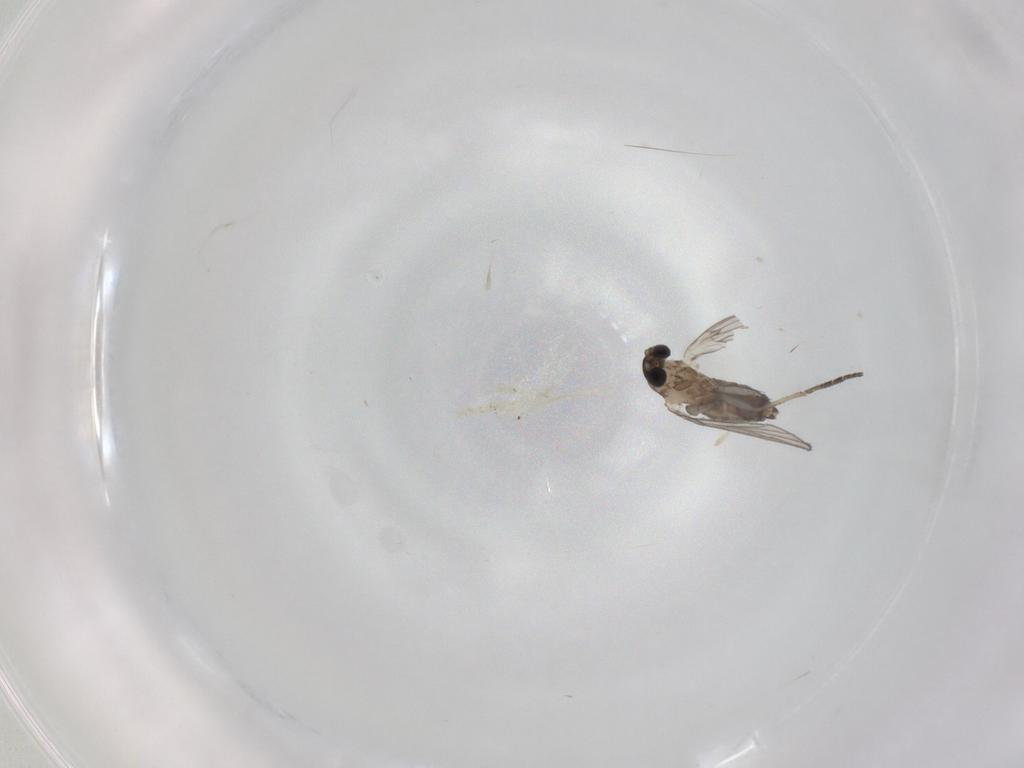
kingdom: Animalia
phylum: Arthropoda
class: Insecta
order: Diptera
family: Psychodidae
